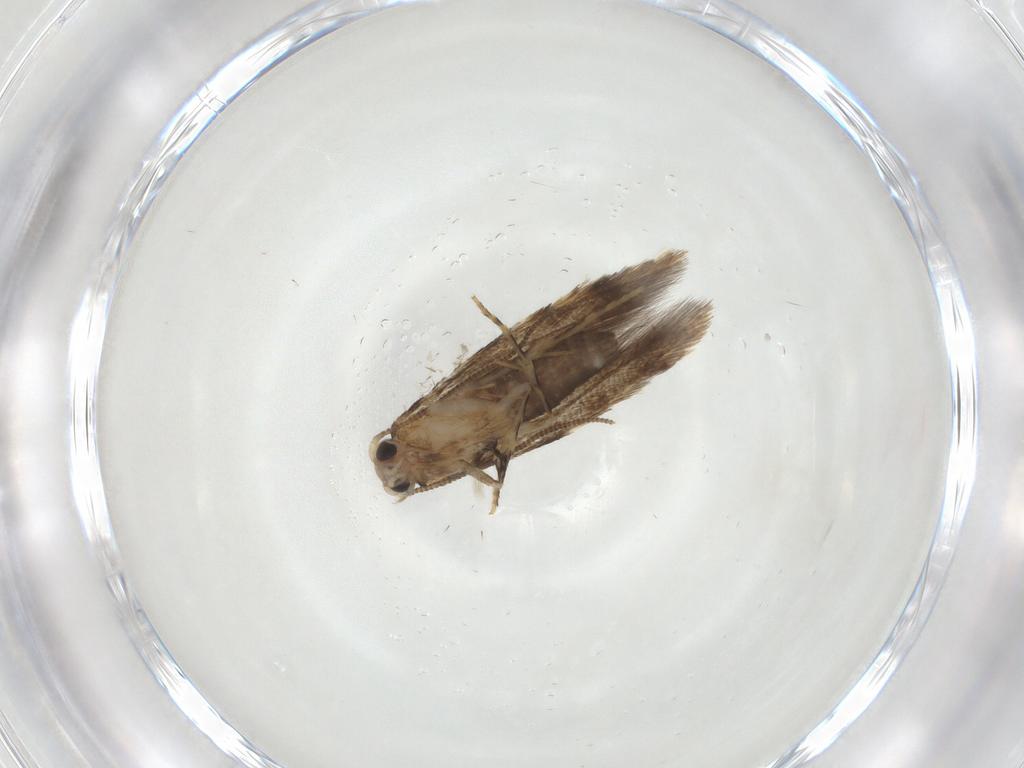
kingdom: Animalia
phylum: Arthropoda
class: Insecta
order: Lepidoptera
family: Tineidae
